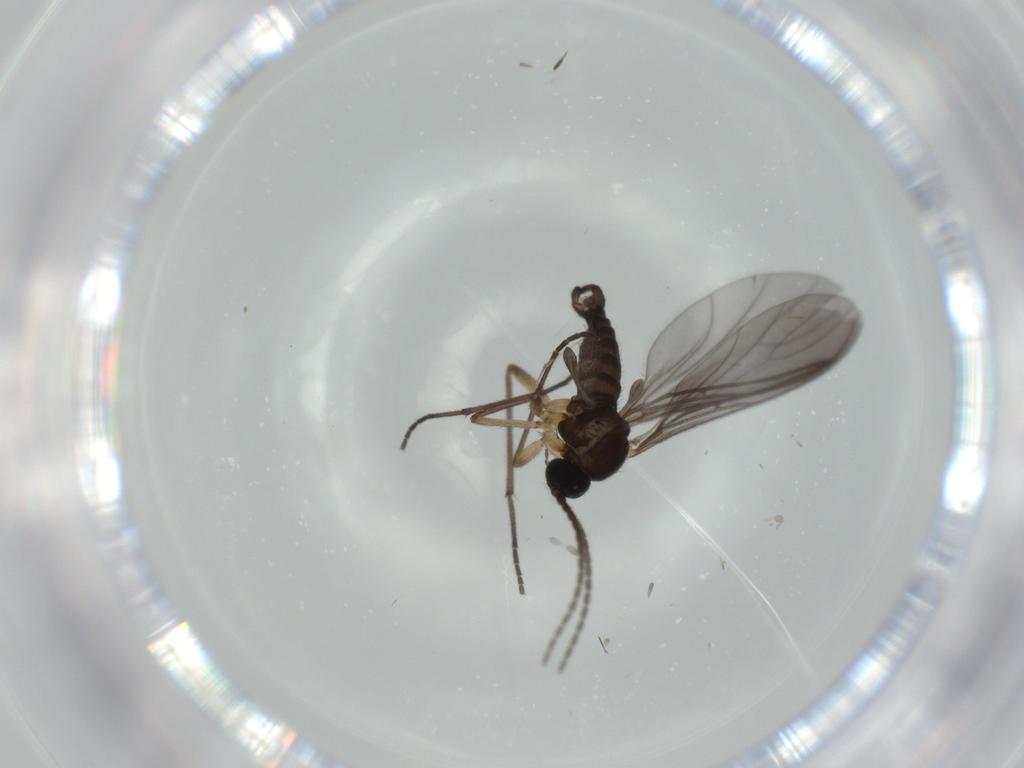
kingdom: Animalia
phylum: Arthropoda
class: Insecta
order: Diptera
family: Sciaridae
